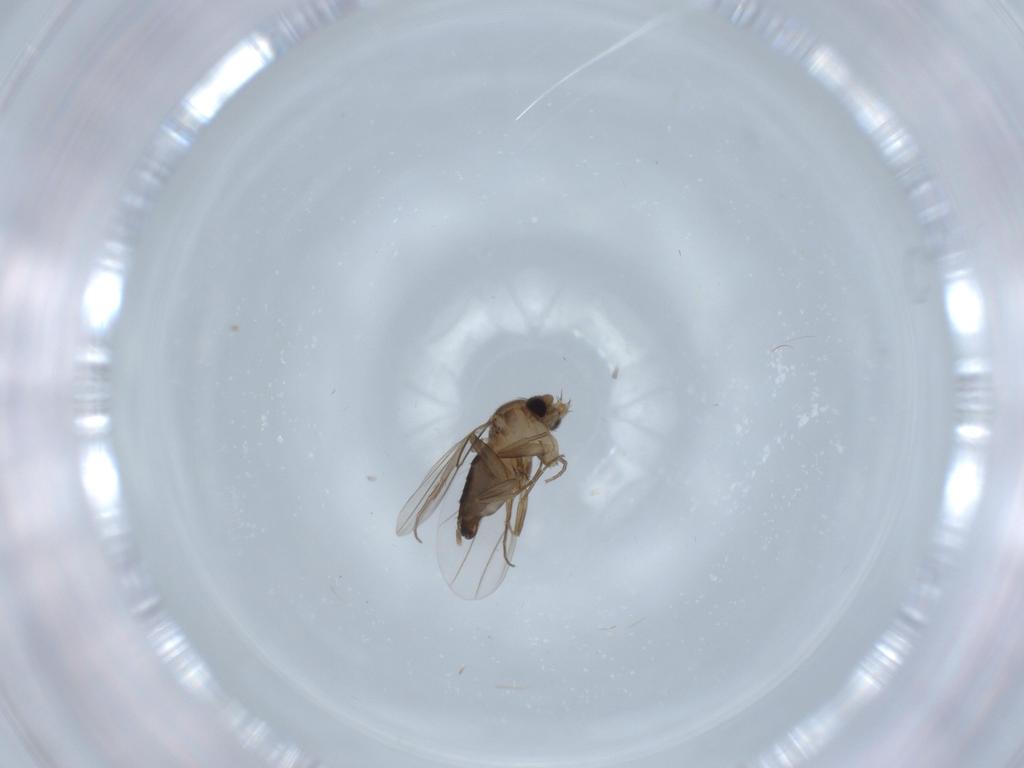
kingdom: Animalia
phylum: Arthropoda
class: Insecta
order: Diptera
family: Phoridae
